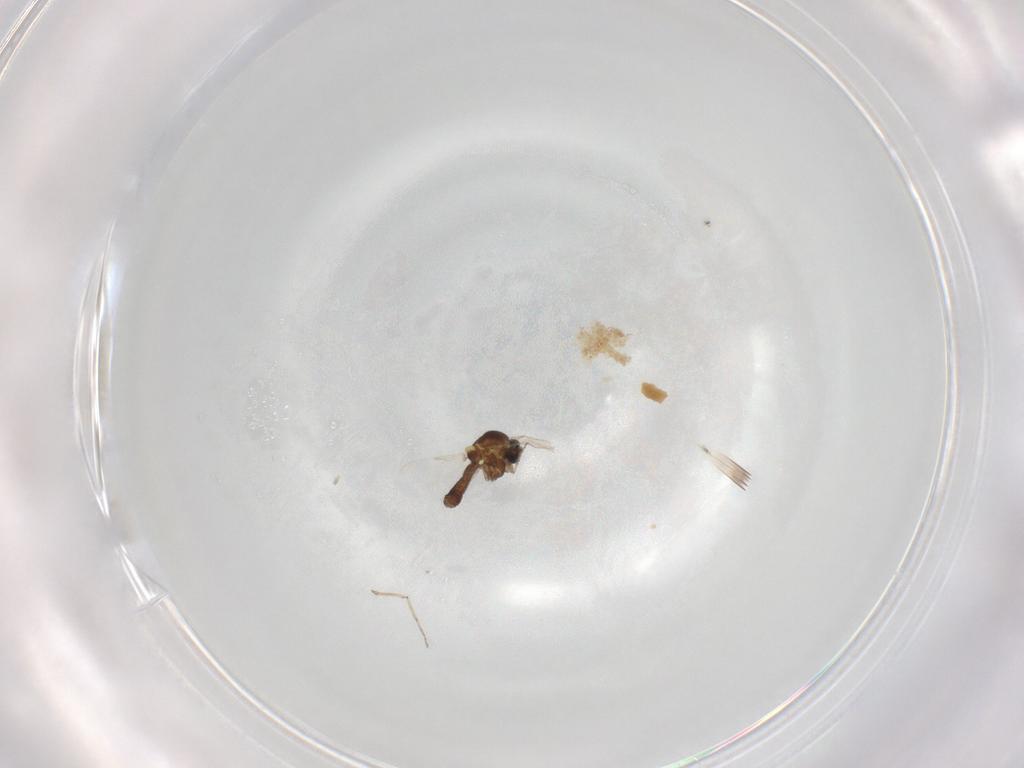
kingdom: Animalia
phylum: Arthropoda
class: Insecta
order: Diptera
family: Ceratopogonidae
